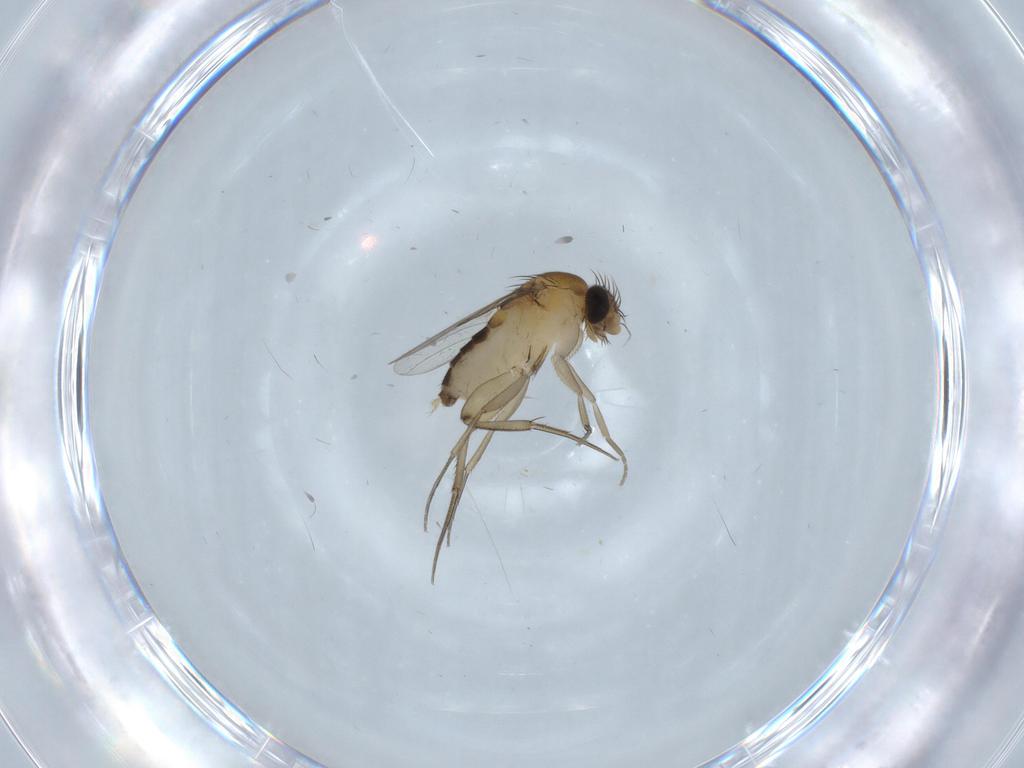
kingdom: Animalia
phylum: Arthropoda
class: Insecta
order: Diptera
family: Phoridae
